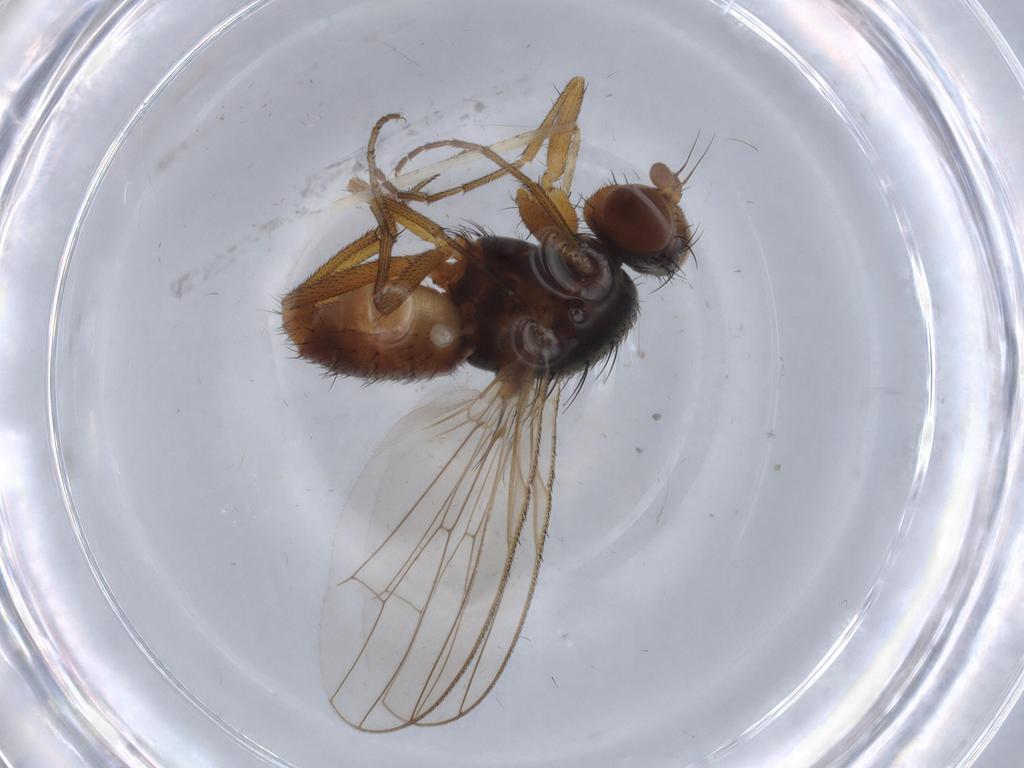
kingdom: Animalia
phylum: Arthropoda
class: Insecta
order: Diptera
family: Heleomyzidae
